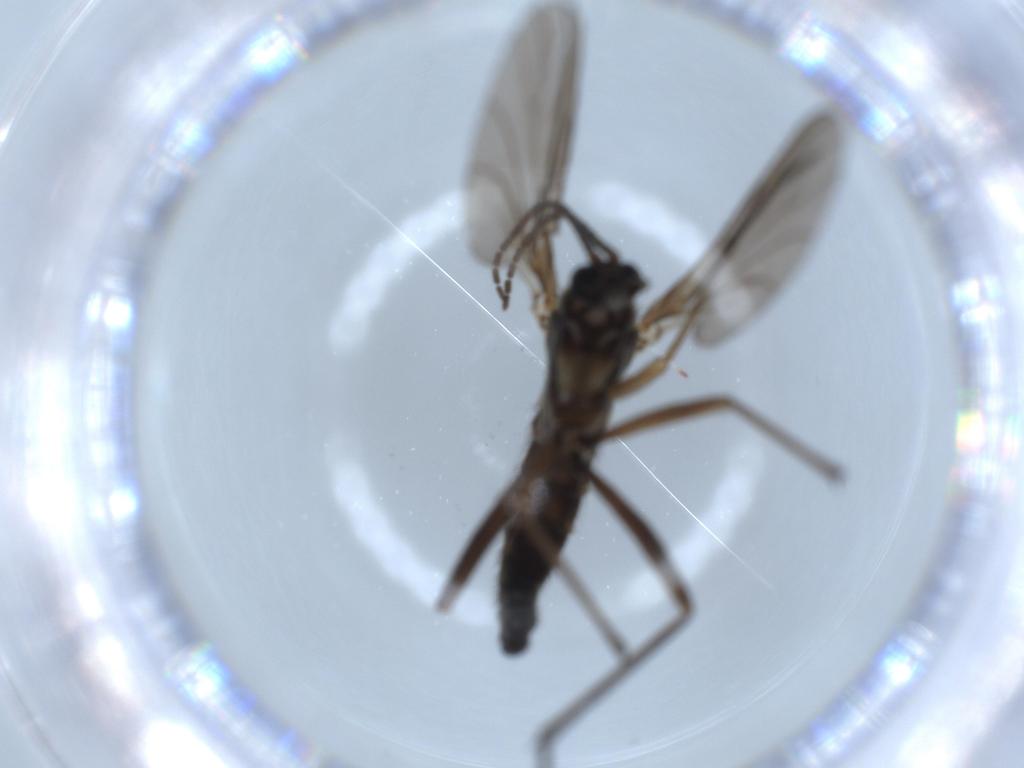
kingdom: Animalia
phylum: Arthropoda
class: Insecta
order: Diptera
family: Sciaridae
